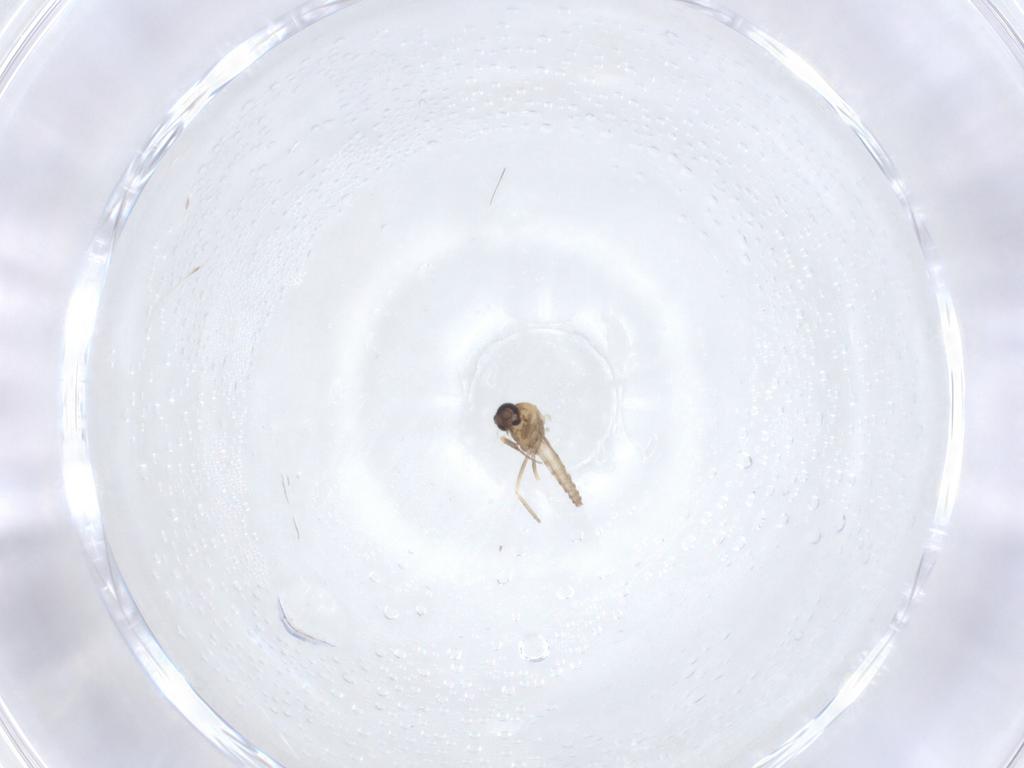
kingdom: Animalia
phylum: Arthropoda
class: Insecta
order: Diptera
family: Ceratopogonidae
